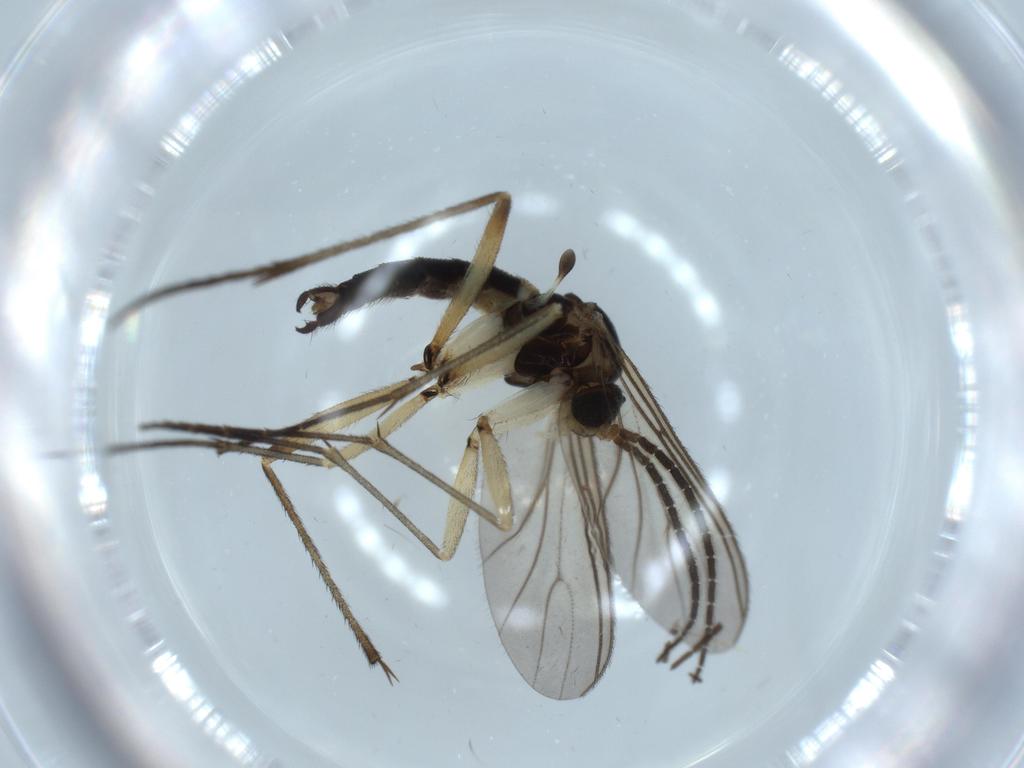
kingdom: Animalia
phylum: Arthropoda
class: Insecta
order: Diptera
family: Sciaridae
